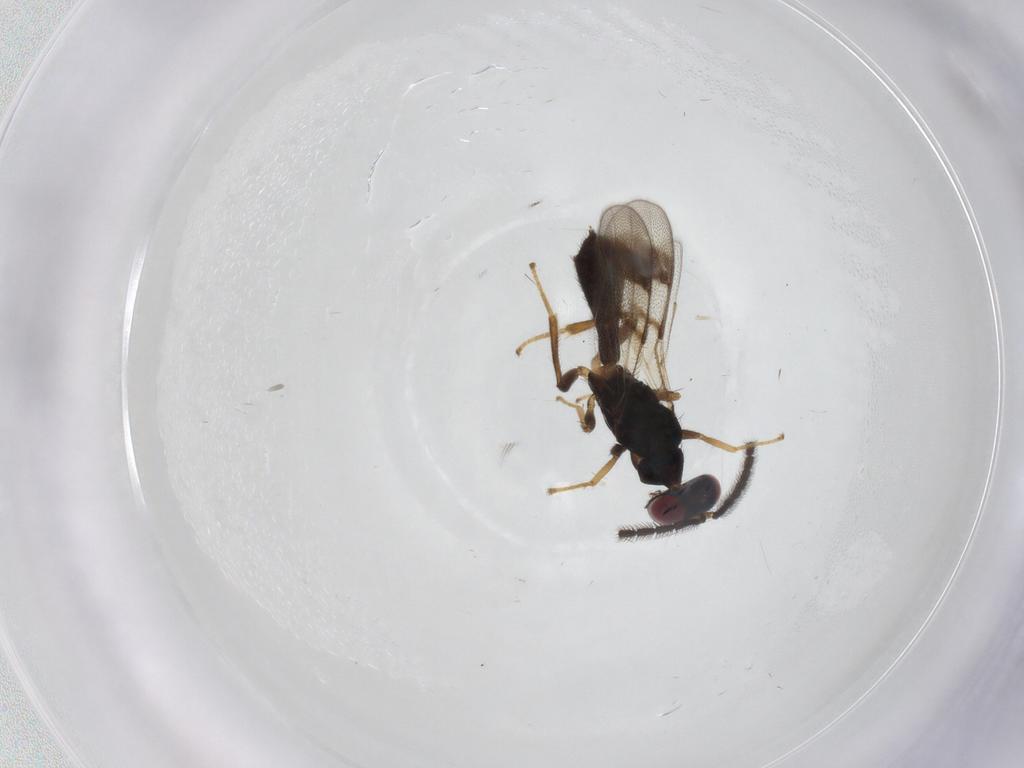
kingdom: Animalia
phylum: Arthropoda
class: Insecta
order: Hymenoptera
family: Pteromalidae
